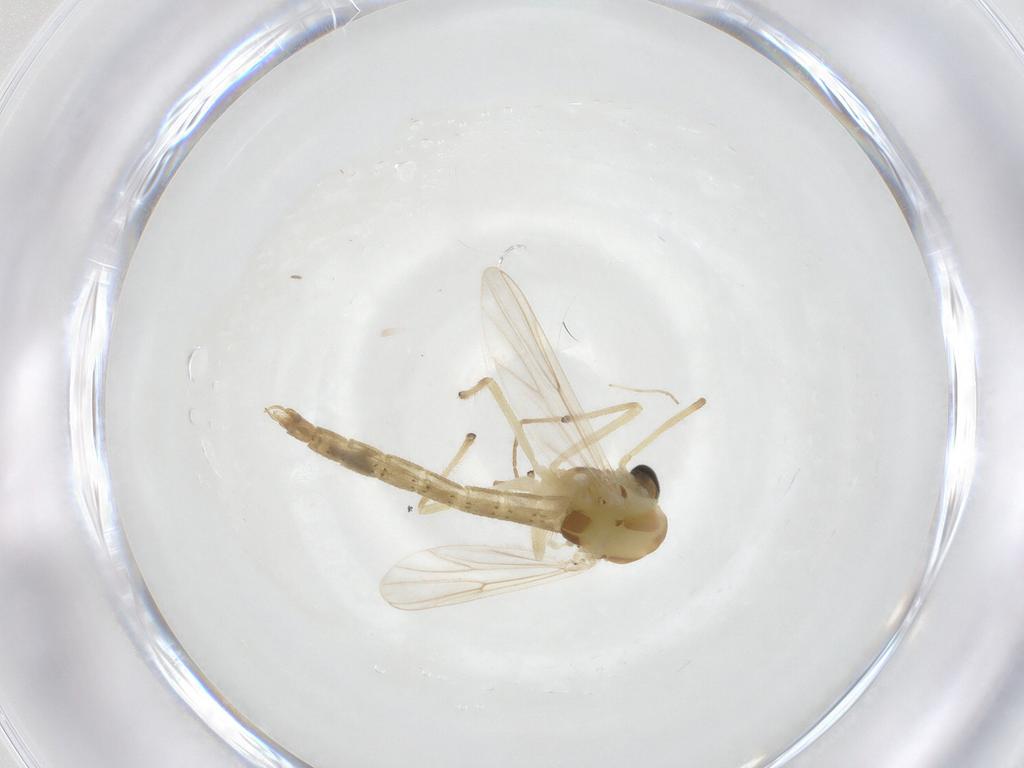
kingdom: Animalia
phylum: Arthropoda
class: Insecta
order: Diptera
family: Chironomidae
